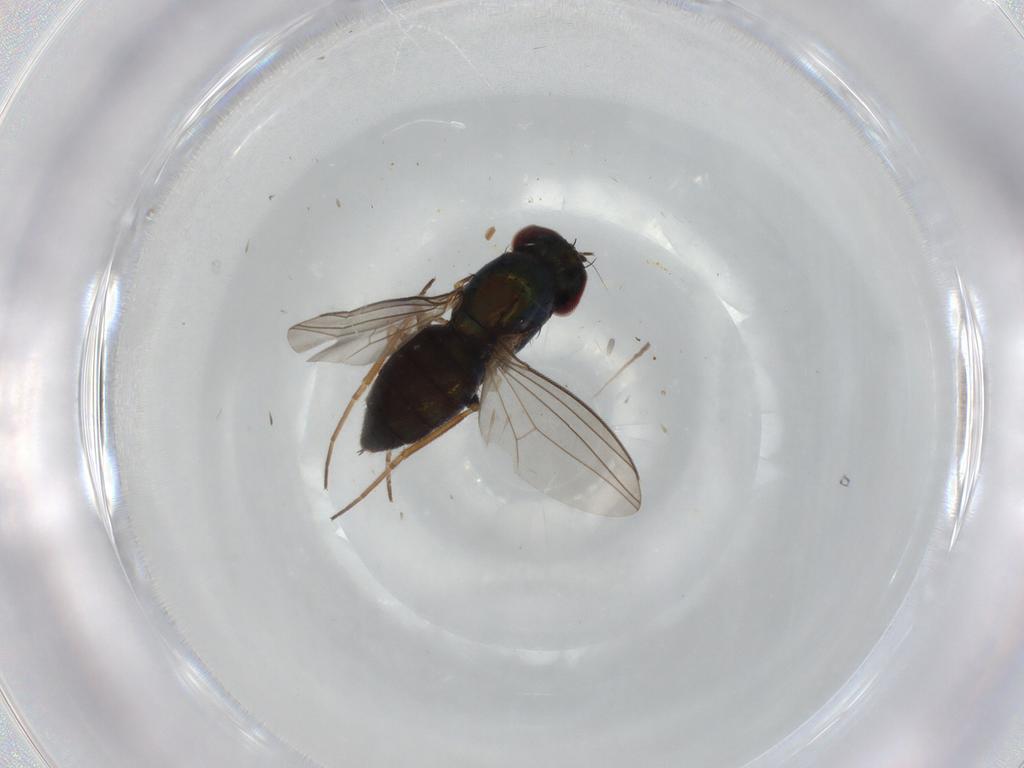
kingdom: Animalia
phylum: Arthropoda
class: Insecta
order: Diptera
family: Dolichopodidae
